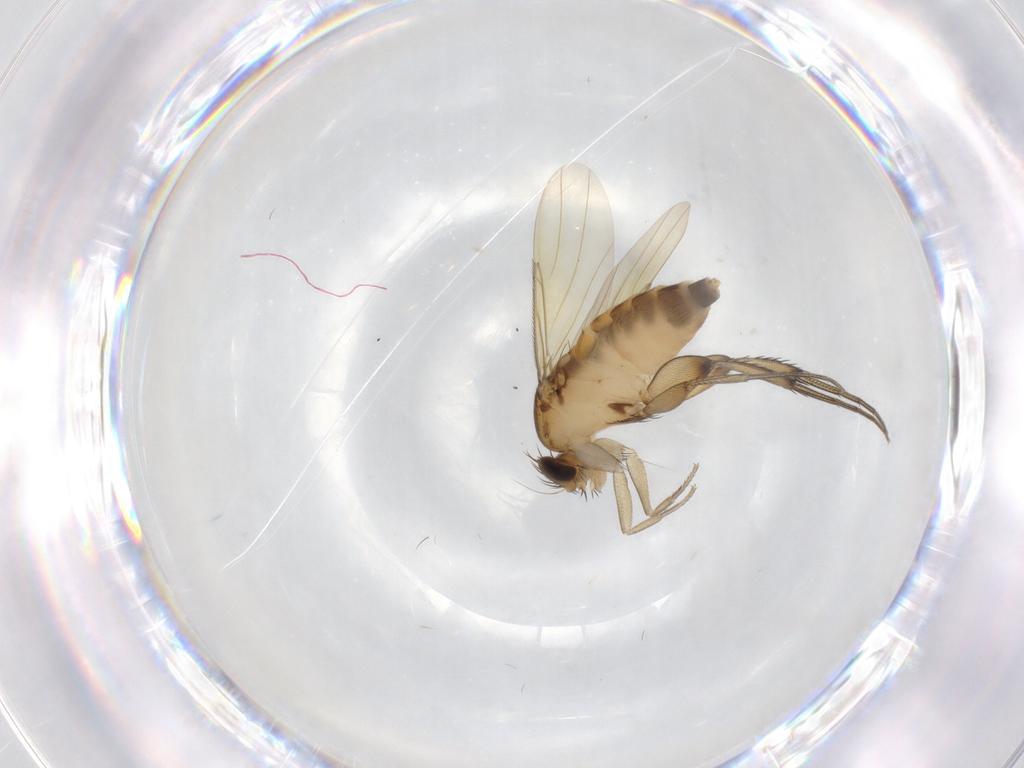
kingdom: Animalia
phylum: Arthropoda
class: Insecta
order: Diptera
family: Phoridae
